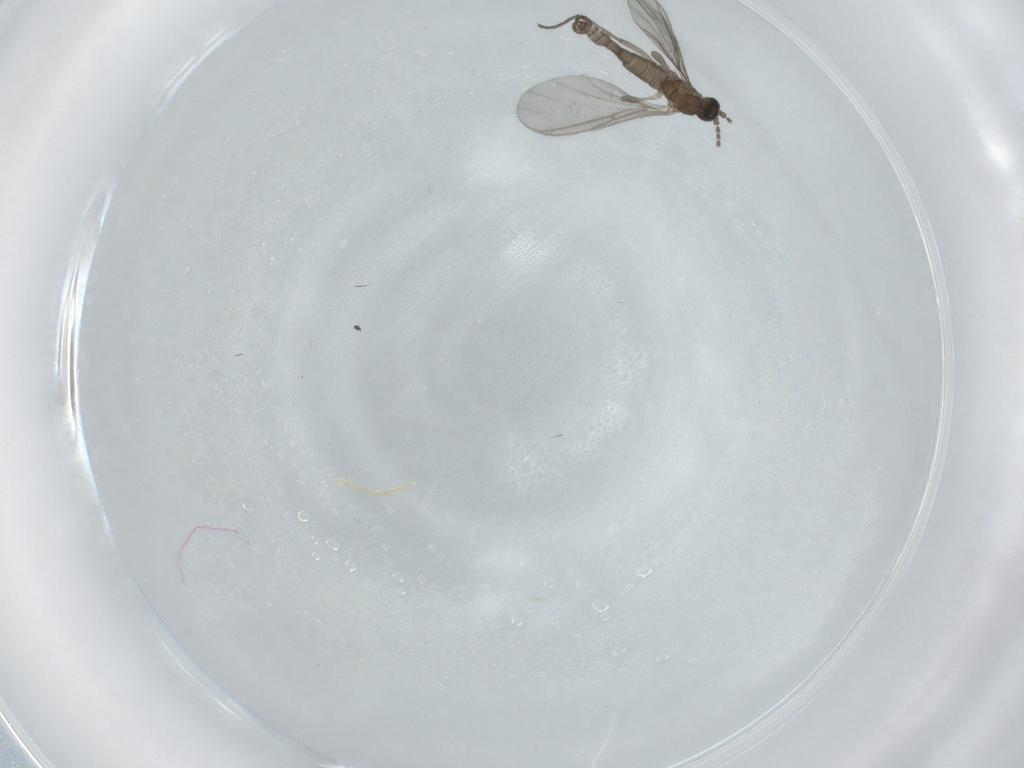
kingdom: Animalia
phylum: Arthropoda
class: Insecta
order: Diptera
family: Sciaridae
